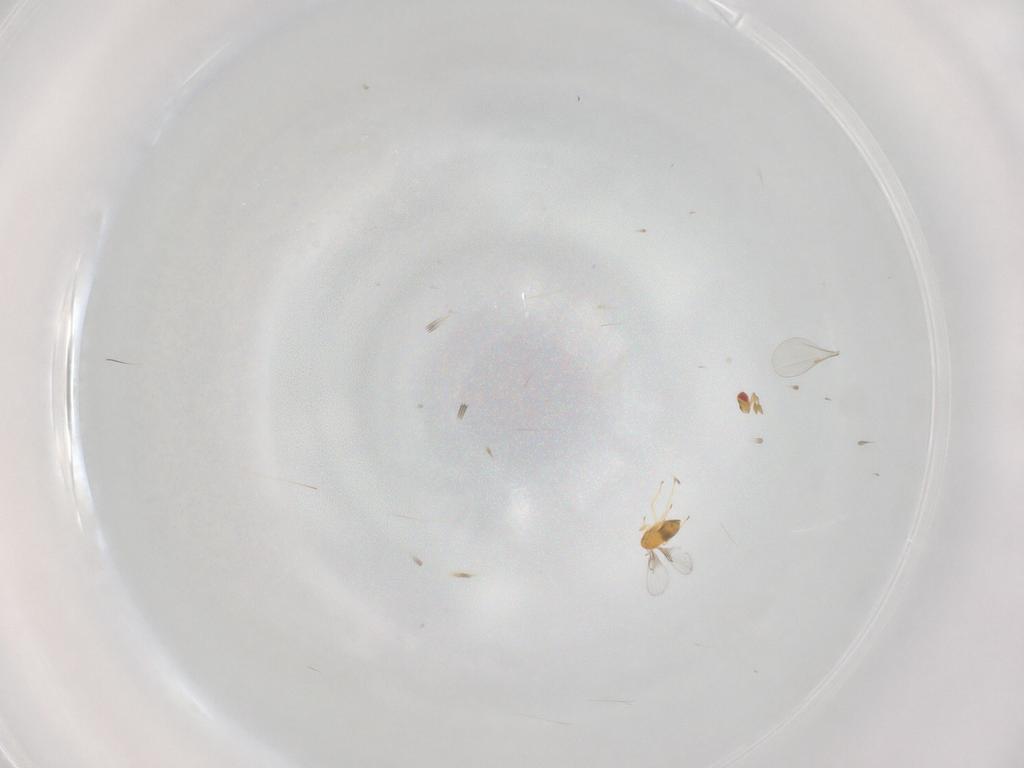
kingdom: Animalia
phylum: Arthropoda
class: Insecta
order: Hymenoptera
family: Trichogrammatidae
